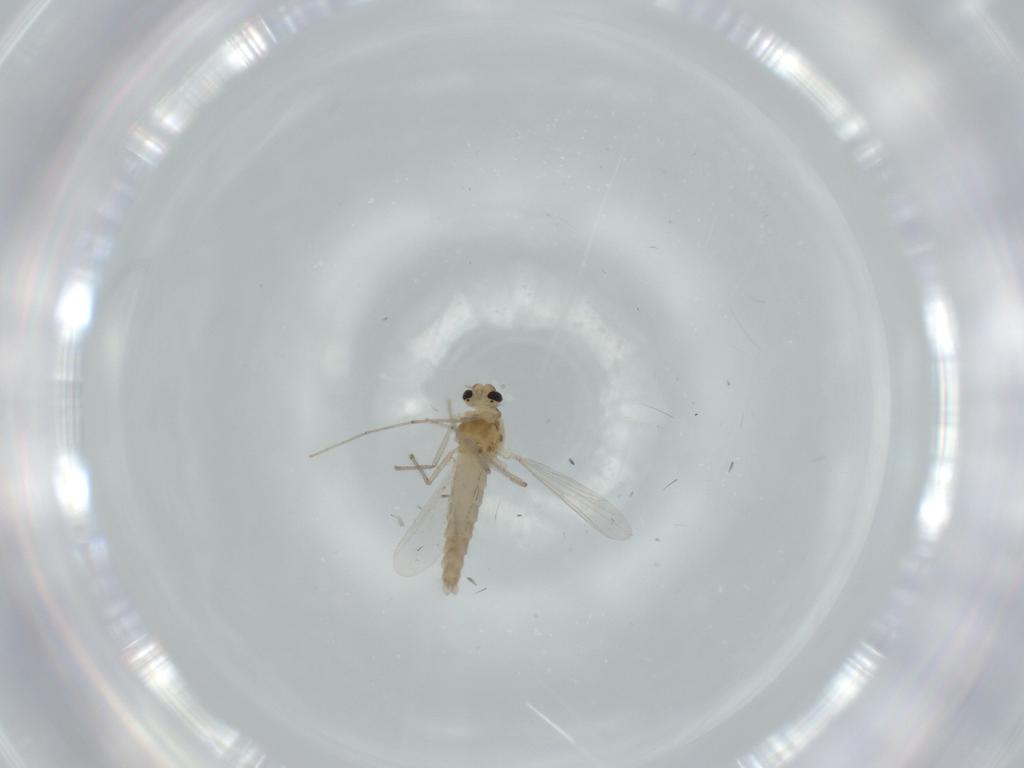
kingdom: Animalia
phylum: Arthropoda
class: Insecta
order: Diptera
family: Chironomidae
